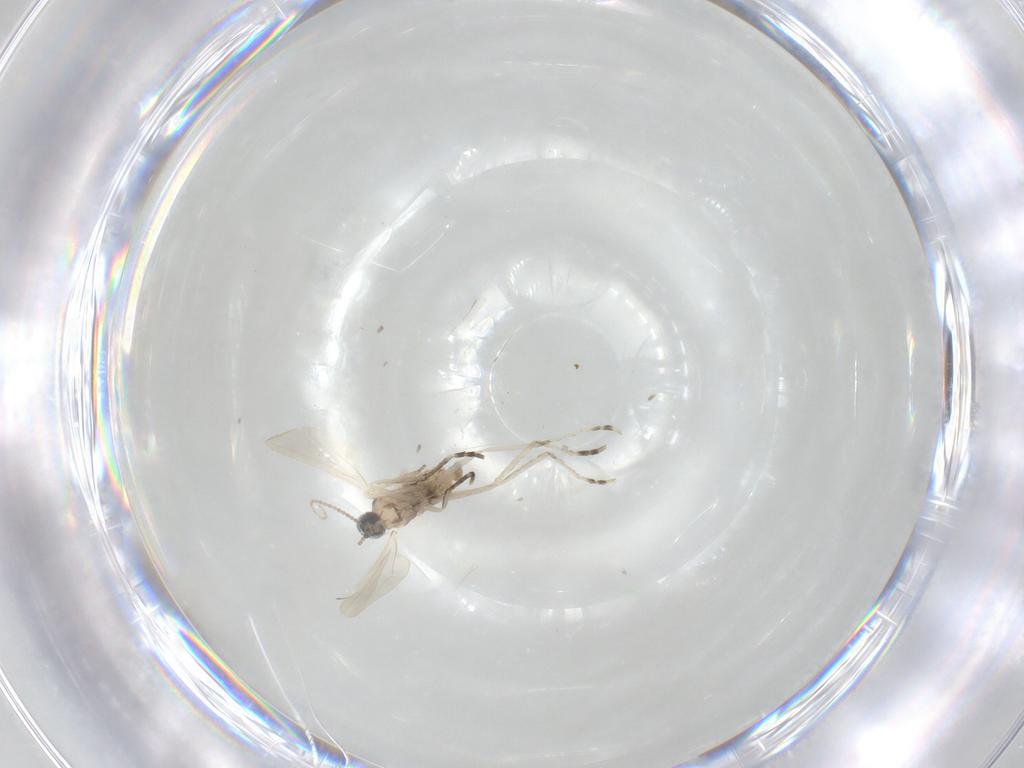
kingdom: Animalia
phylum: Arthropoda
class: Insecta
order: Diptera
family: Cecidomyiidae
